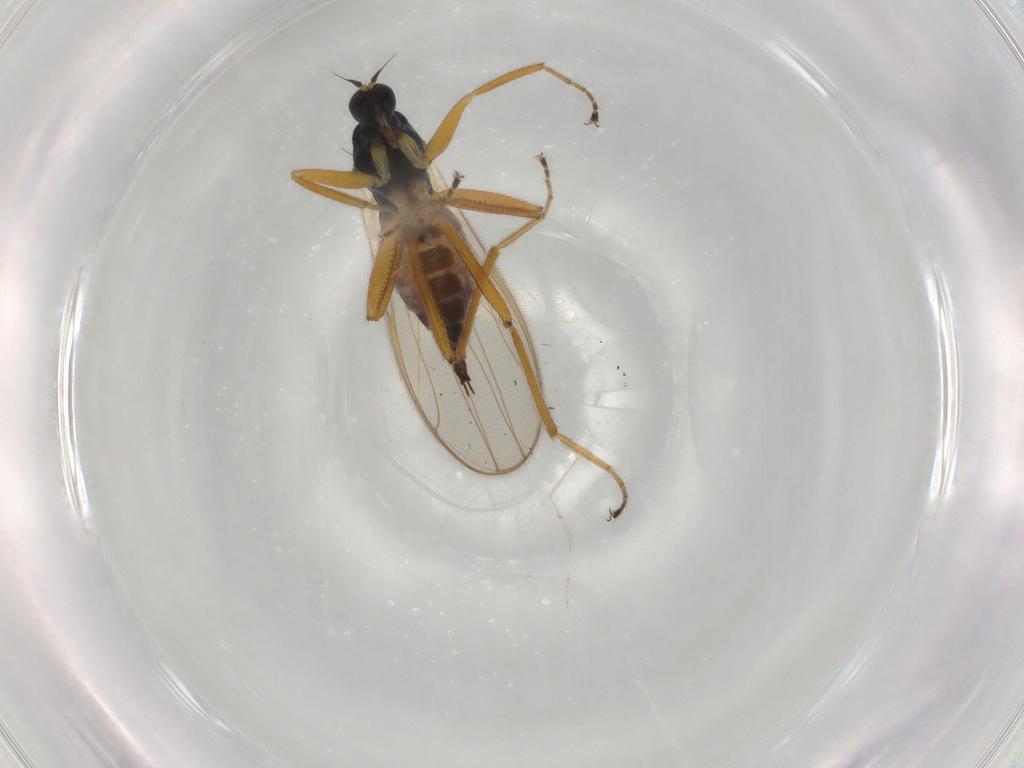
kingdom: Animalia
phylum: Arthropoda
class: Insecta
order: Diptera
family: Hybotidae
